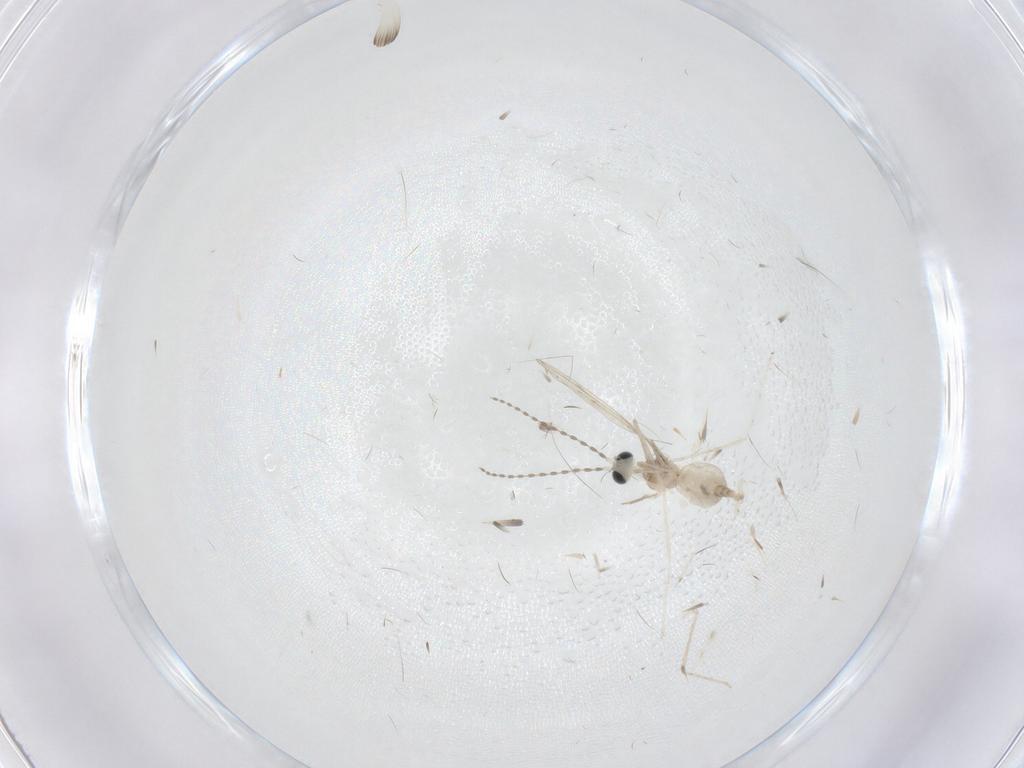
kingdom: Animalia
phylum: Arthropoda
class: Insecta
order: Diptera
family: Cecidomyiidae
